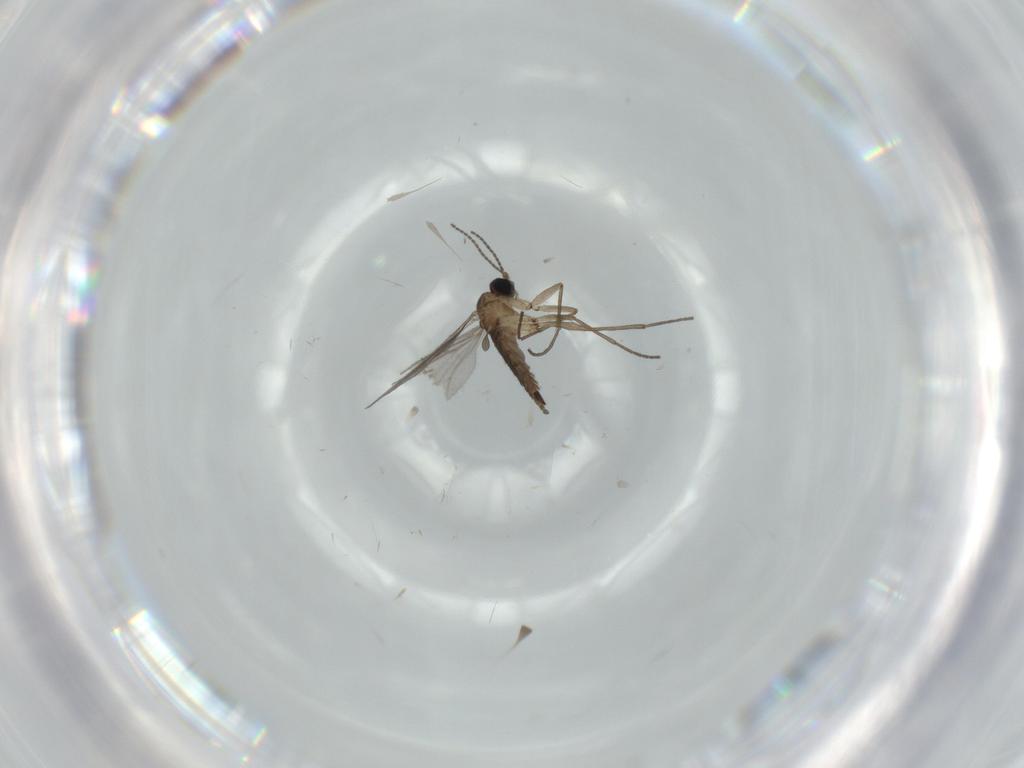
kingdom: Animalia
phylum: Arthropoda
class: Insecta
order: Diptera
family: Sciaridae
